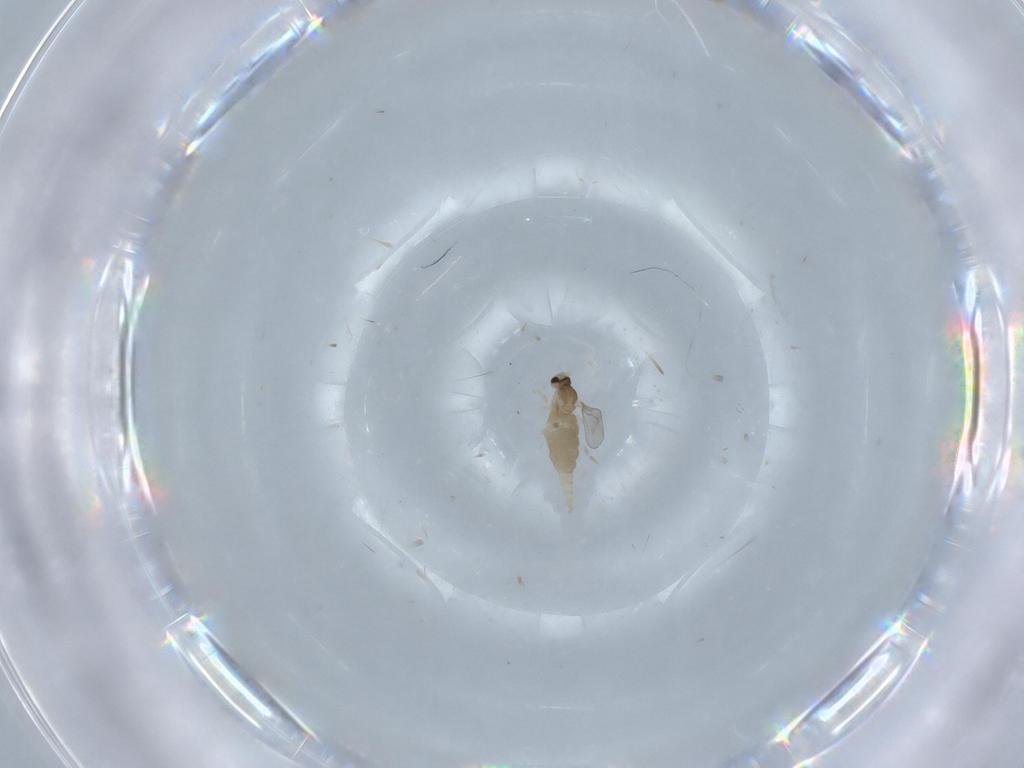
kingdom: Animalia
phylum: Arthropoda
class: Insecta
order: Diptera
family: Cecidomyiidae
